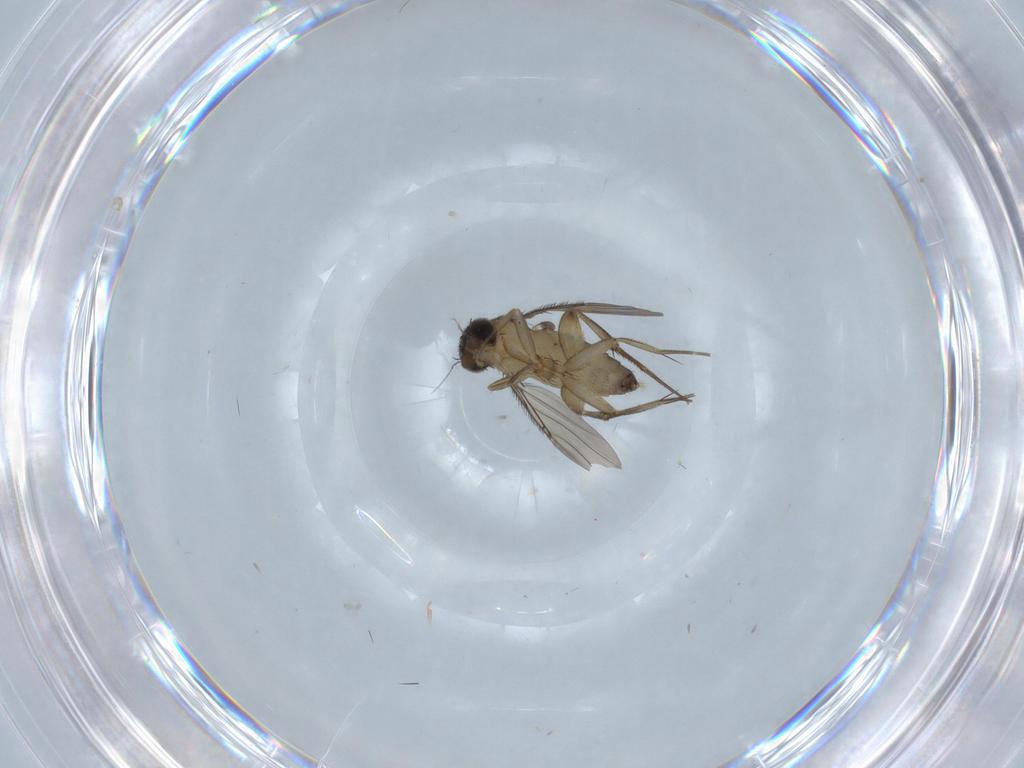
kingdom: Animalia
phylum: Arthropoda
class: Insecta
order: Diptera
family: Phoridae
